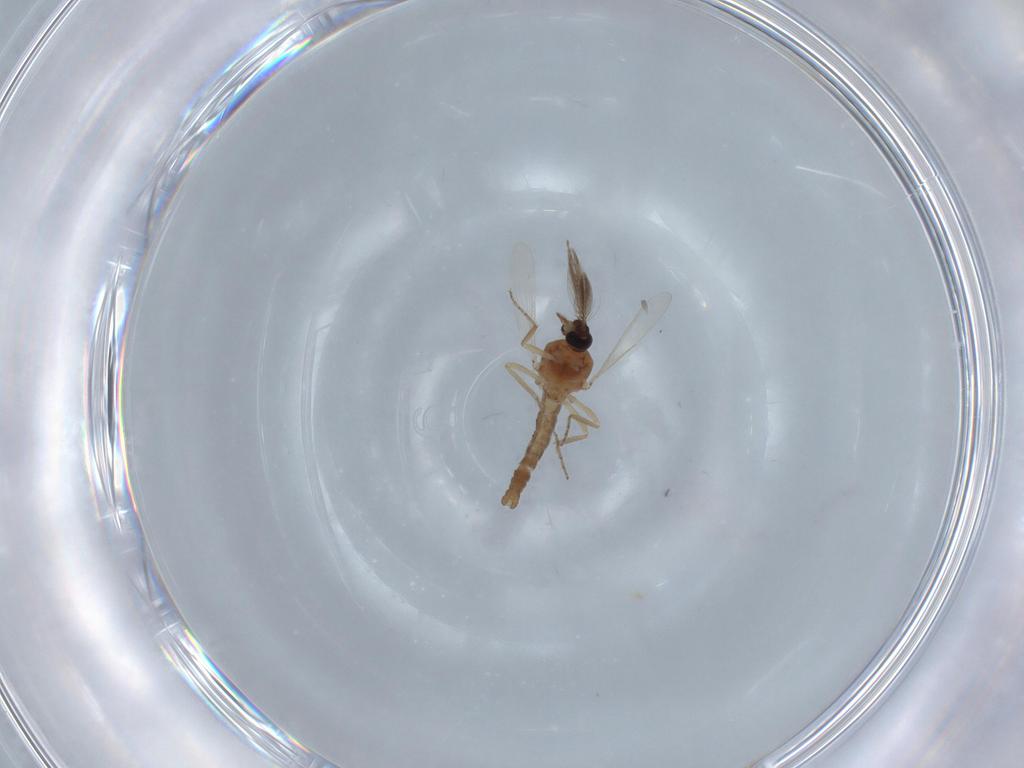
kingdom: Animalia
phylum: Arthropoda
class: Insecta
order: Diptera
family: Ceratopogonidae
